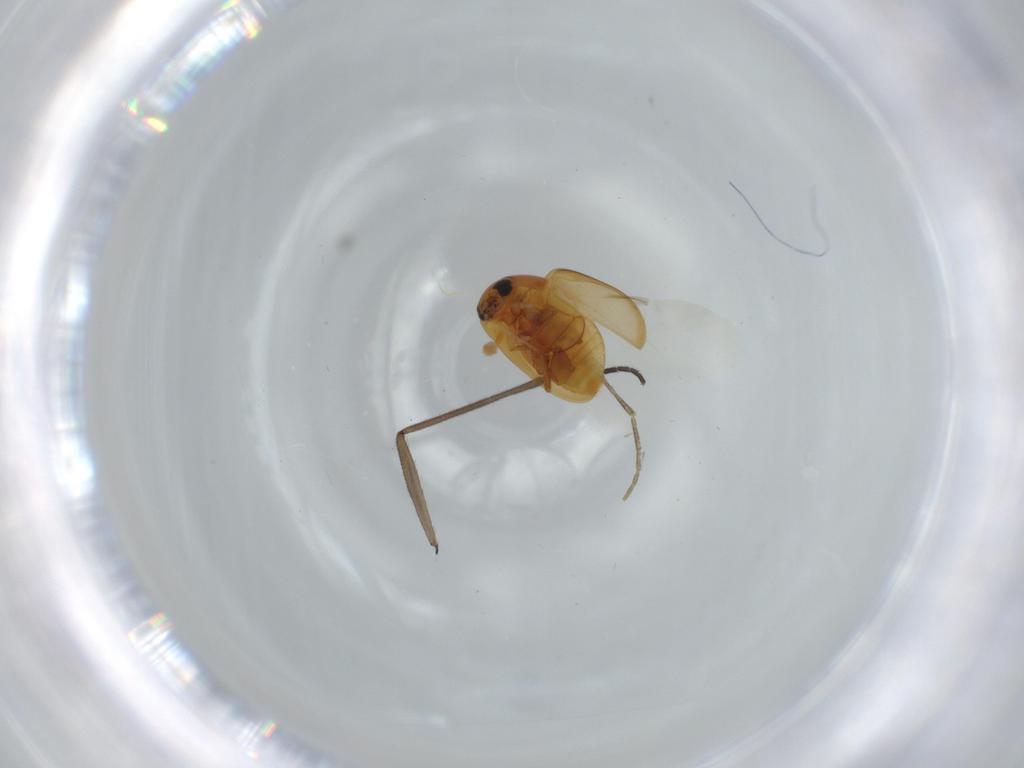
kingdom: Animalia
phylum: Arthropoda
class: Insecta
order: Coleoptera
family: Phalacridae
